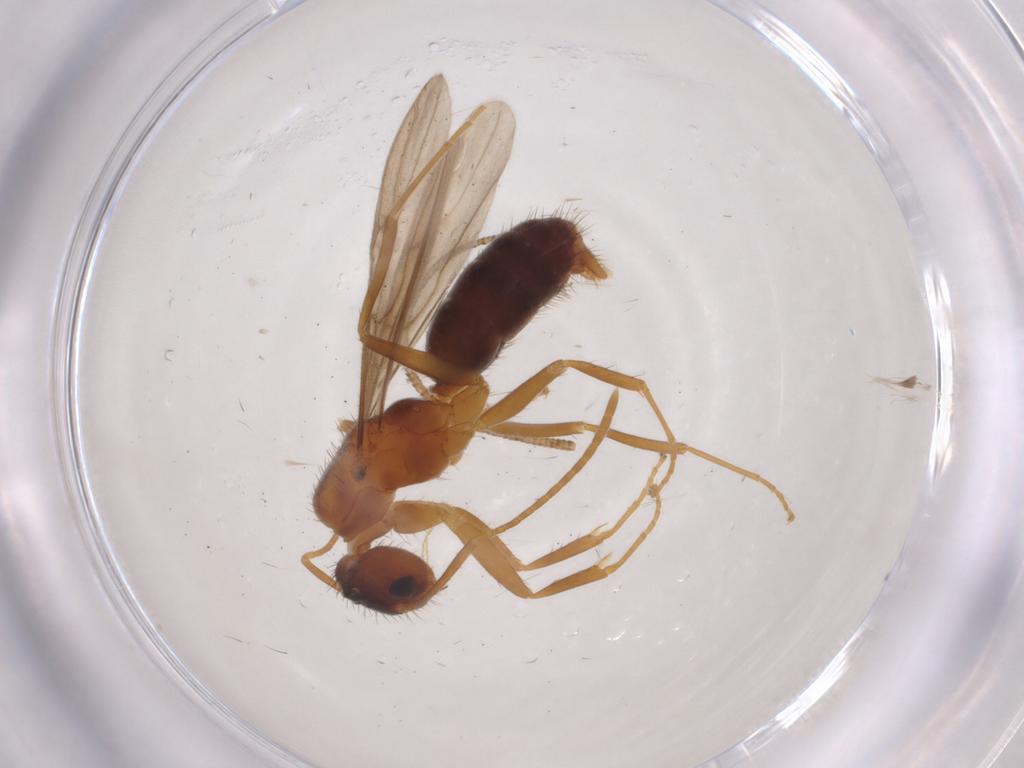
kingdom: Animalia
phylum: Arthropoda
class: Insecta
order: Hymenoptera
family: Formicidae
